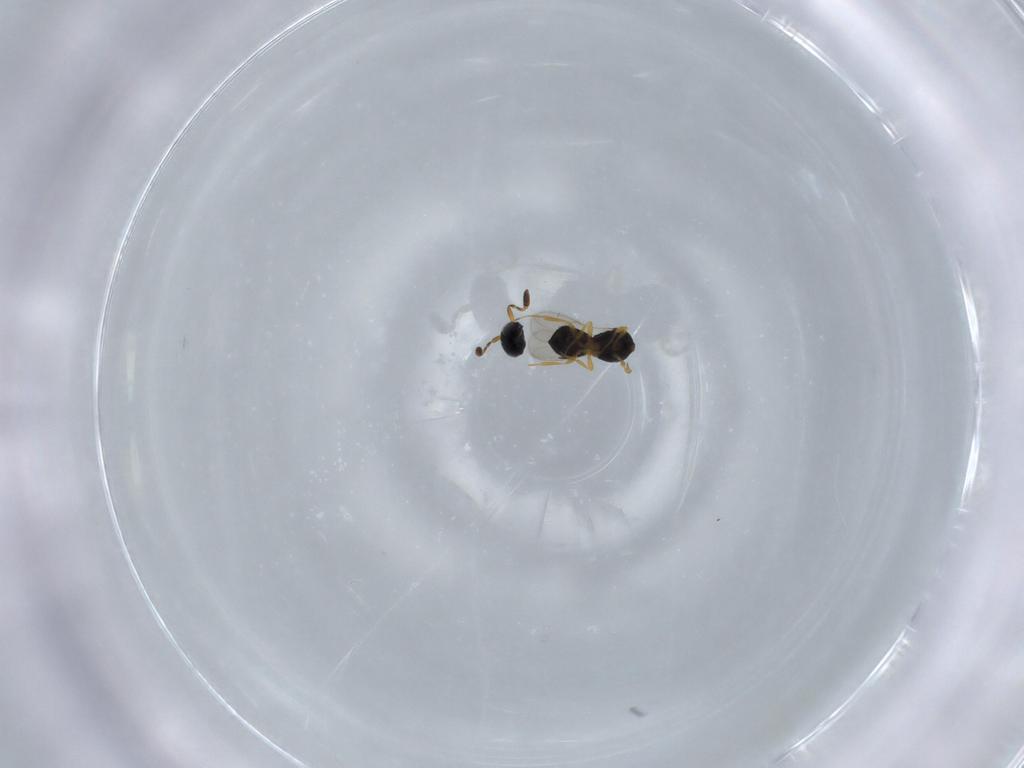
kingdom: Animalia
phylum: Arthropoda
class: Insecta
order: Hymenoptera
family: Scelionidae
